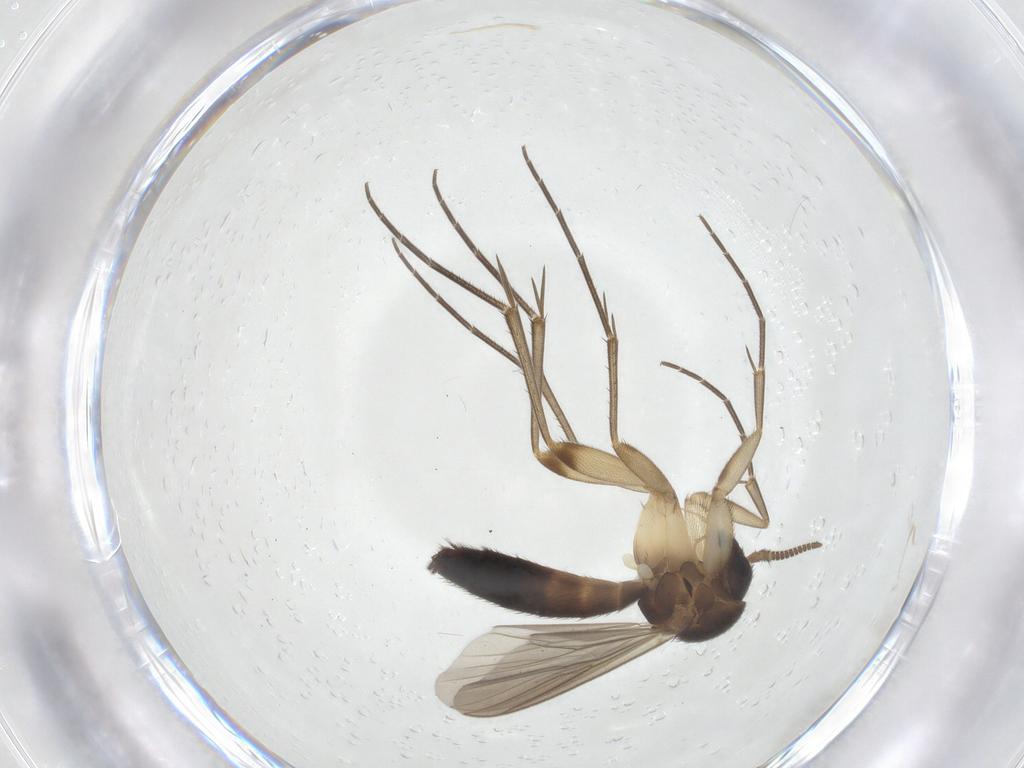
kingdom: Animalia
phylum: Arthropoda
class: Insecta
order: Diptera
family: Mycetophilidae
